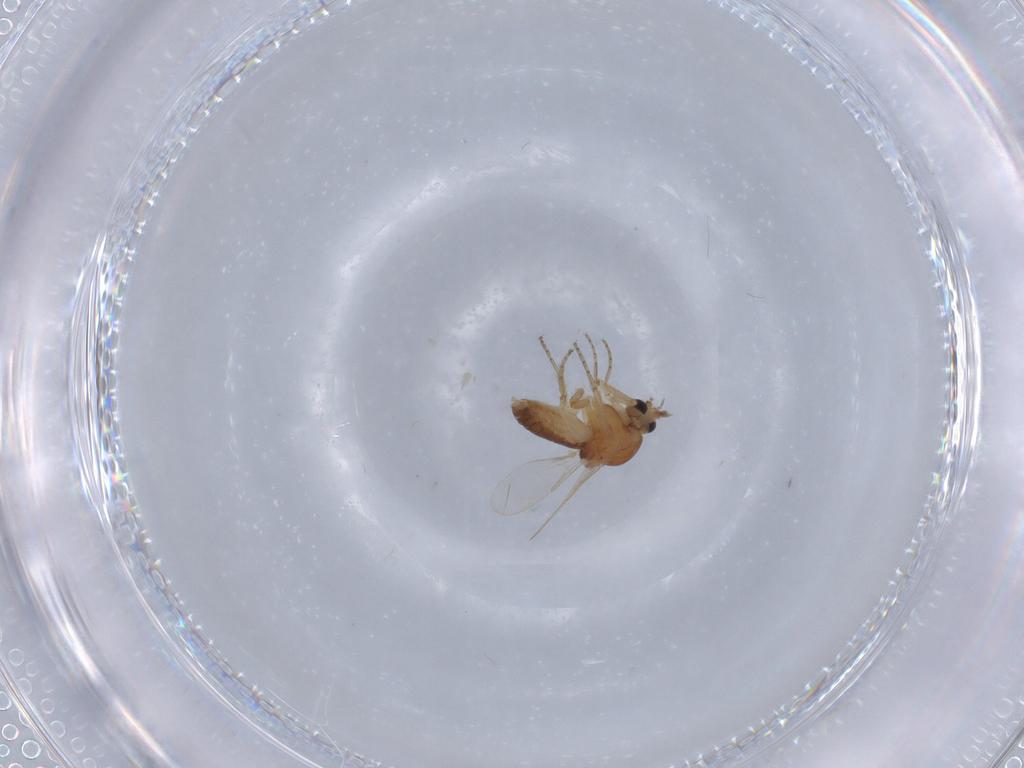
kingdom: Animalia
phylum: Arthropoda
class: Insecta
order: Diptera
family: Ceratopogonidae
